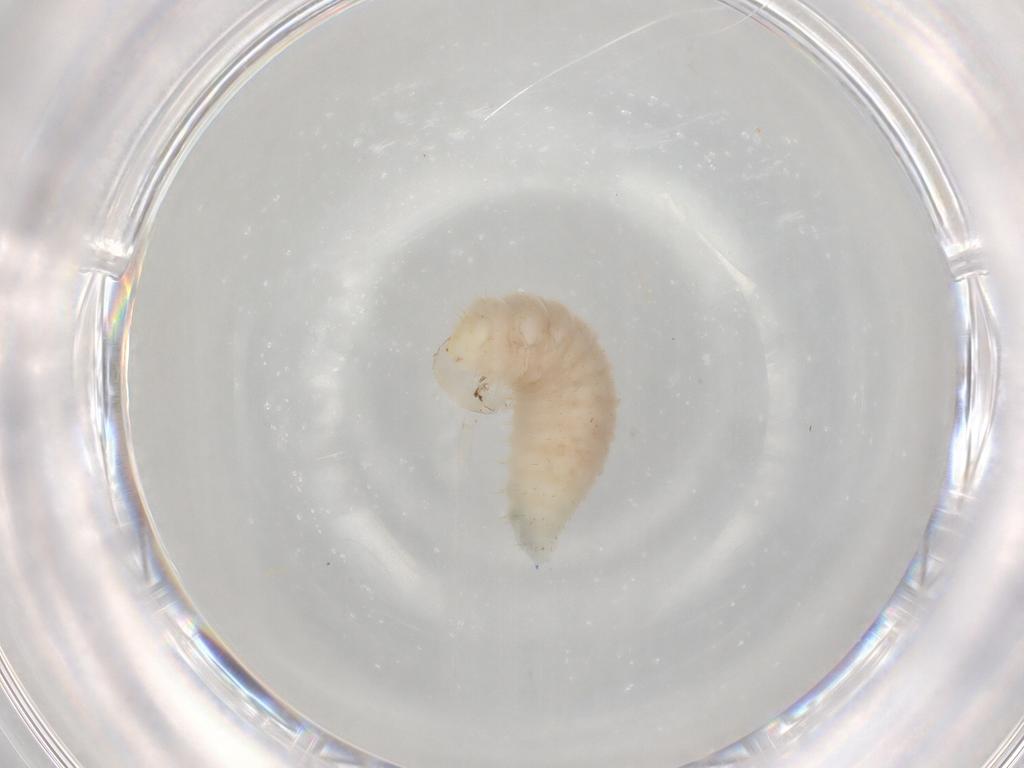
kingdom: Animalia
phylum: Arthropoda
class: Insecta
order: Hymenoptera
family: Torymidae
